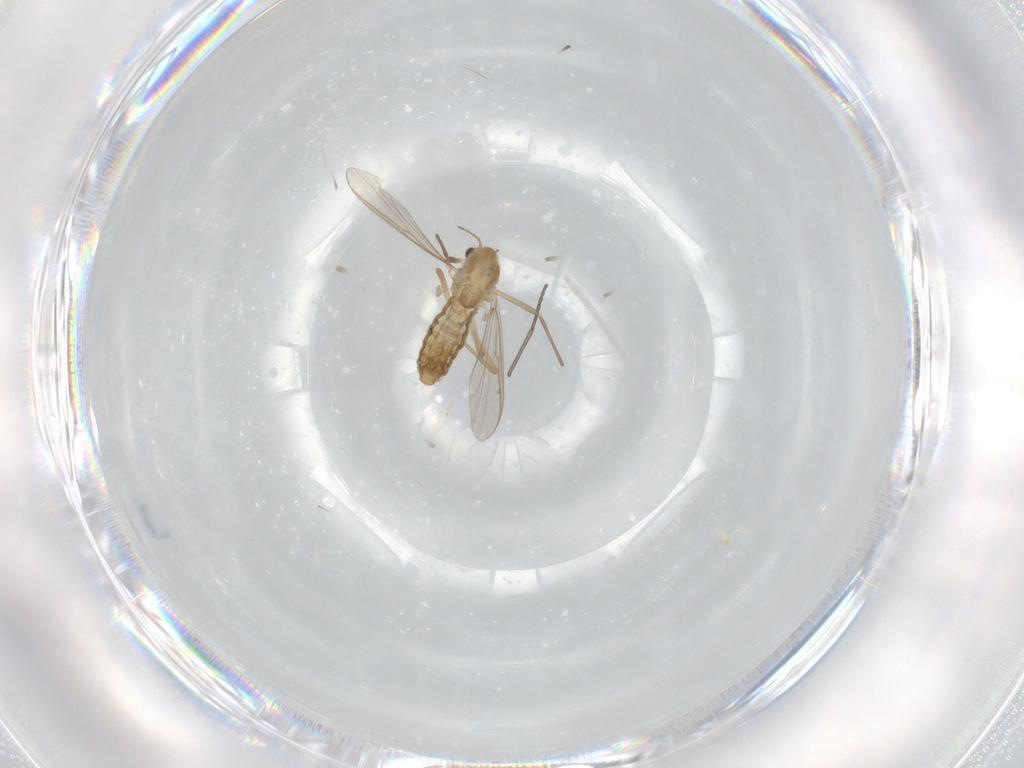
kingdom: Animalia
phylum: Arthropoda
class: Insecta
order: Diptera
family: Chironomidae
